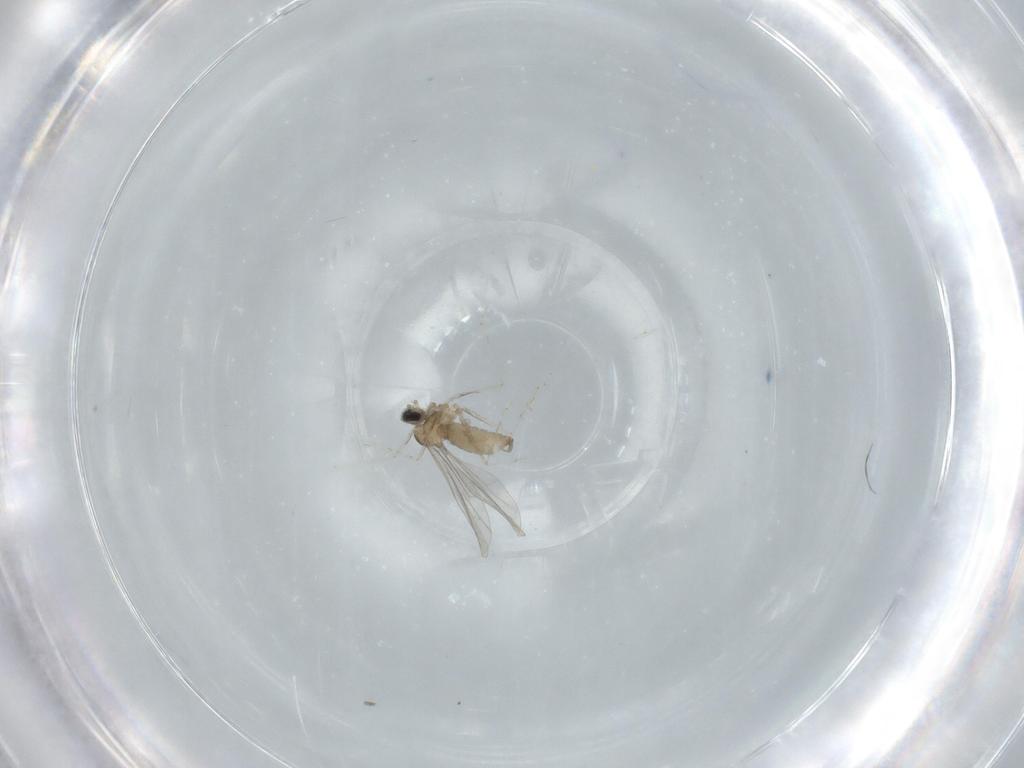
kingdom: Animalia
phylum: Arthropoda
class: Insecta
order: Diptera
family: Cecidomyiidae
